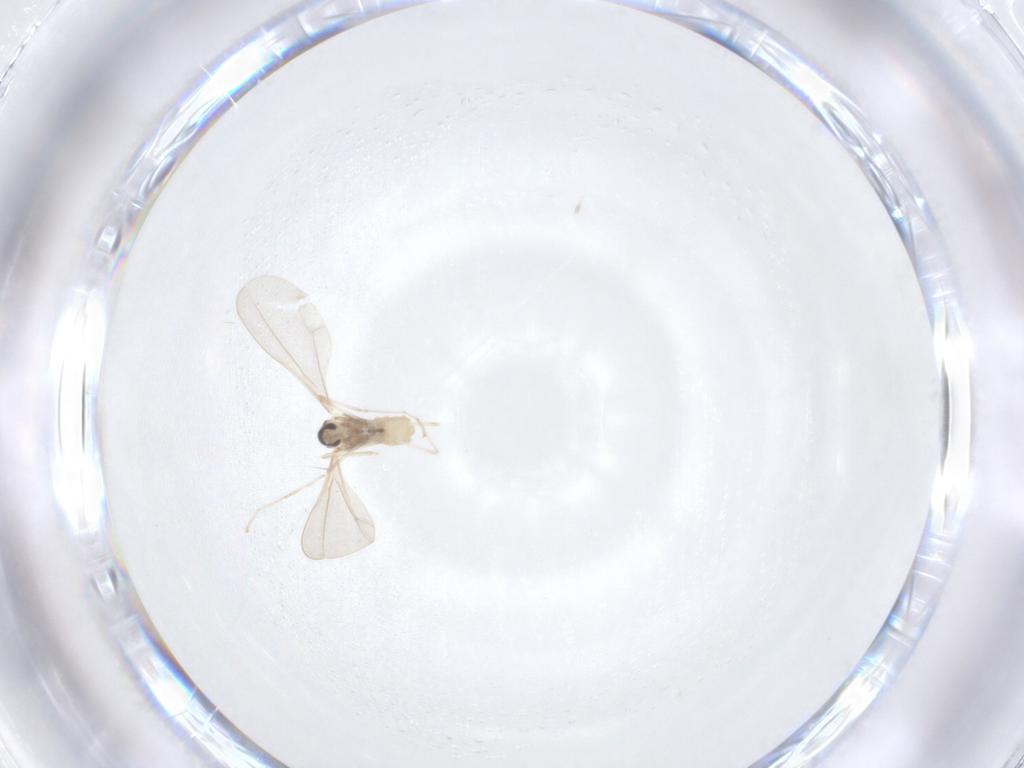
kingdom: Animalia
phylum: Arthropoda
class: Insecta
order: Diptera
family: Cecidomyiidae
